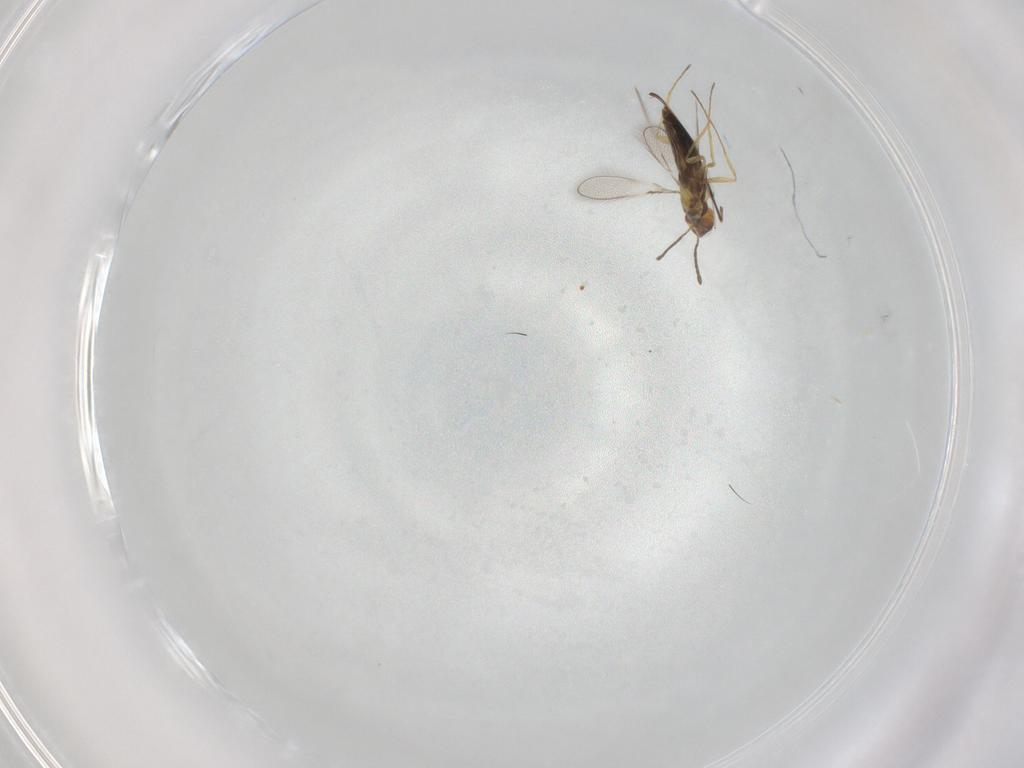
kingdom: Animalia
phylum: Arthropoda
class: Insecta
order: Hymenoptera
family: Mymaridae
